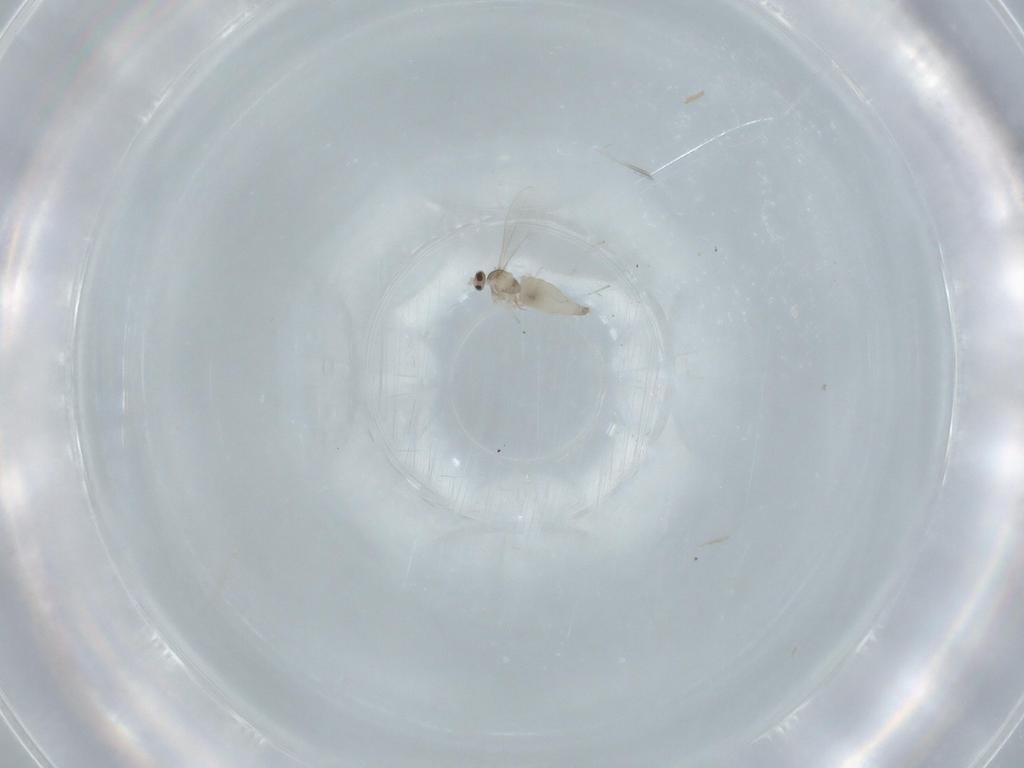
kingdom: Animalia
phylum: Arthropoda
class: Insecta
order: Diptera
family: Cecidomyiidae
